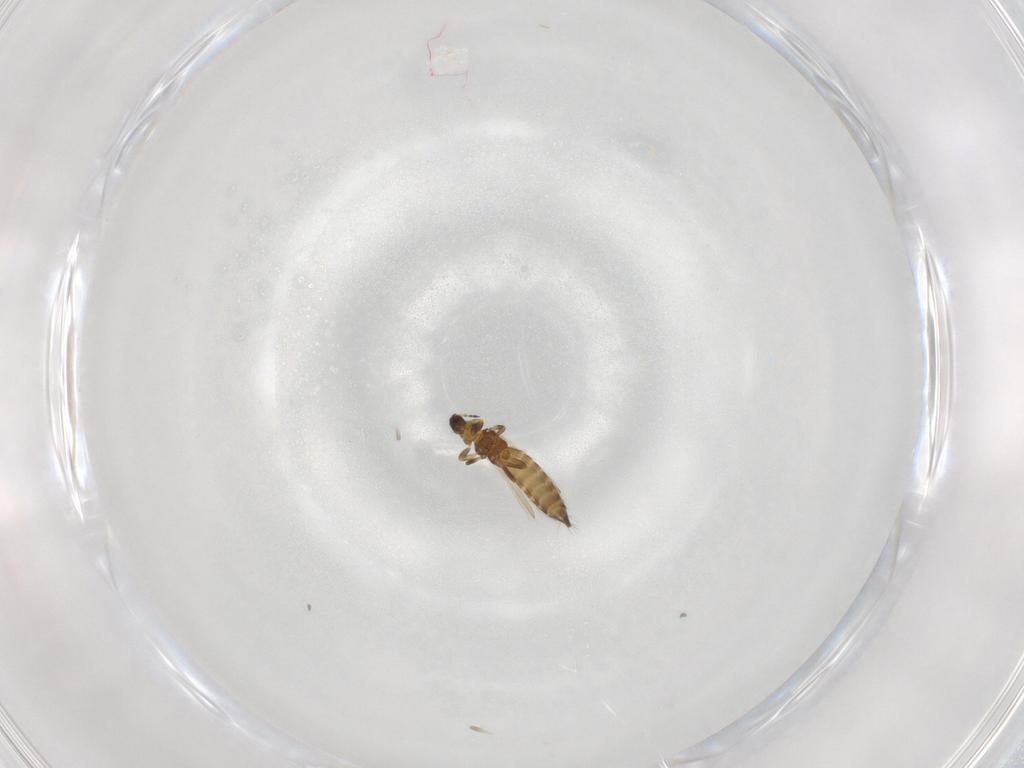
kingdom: Animalia
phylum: Arthropoda
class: Insecta
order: Thysanoptera
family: Thripidae
